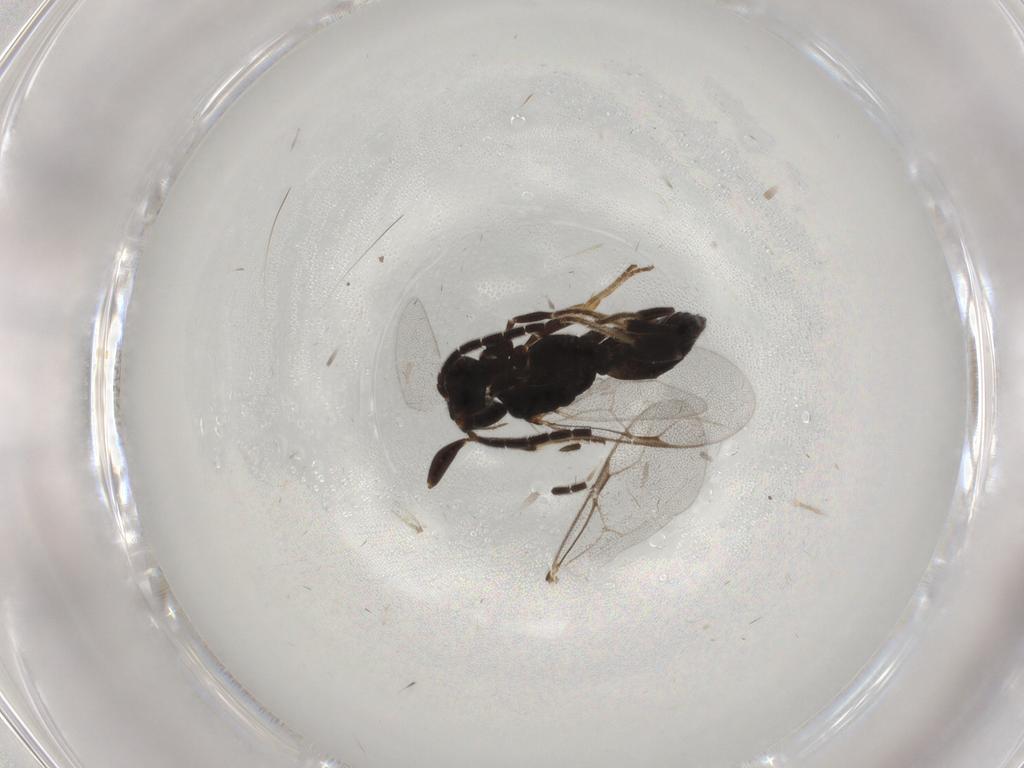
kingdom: Animalia
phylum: Arthropoda
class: Insecta
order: Hymenoptera
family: Dryinidae
